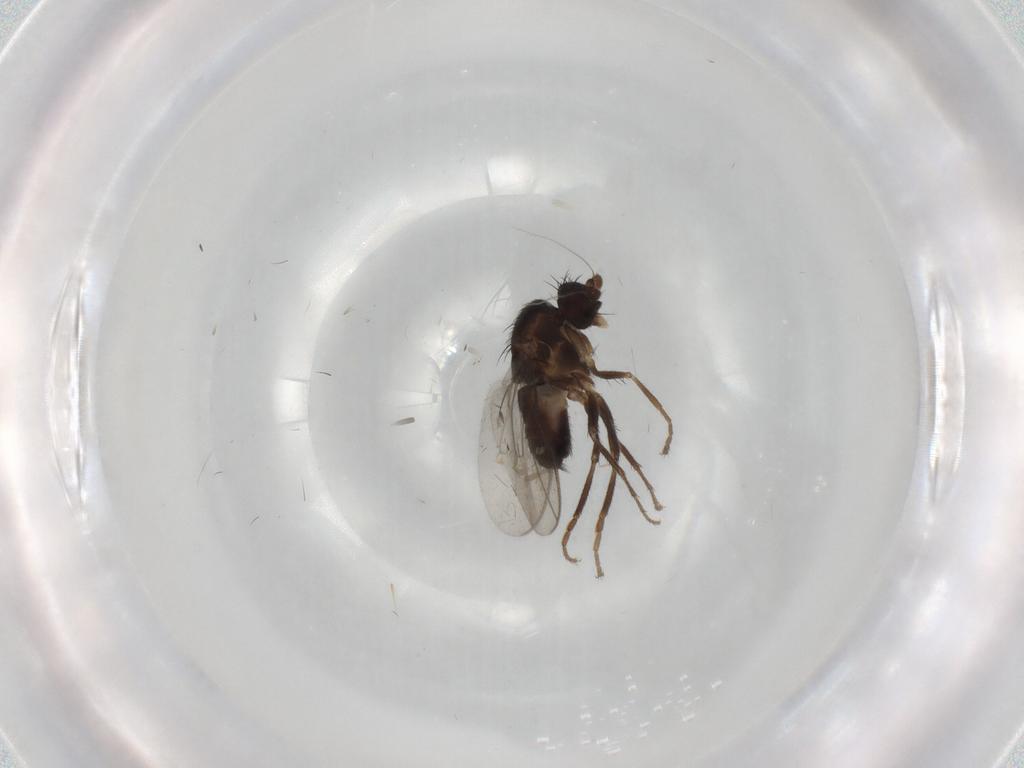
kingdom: Animalia
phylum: Arthropoda
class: Insecta
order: Diptera
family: Sphaeroceridae
